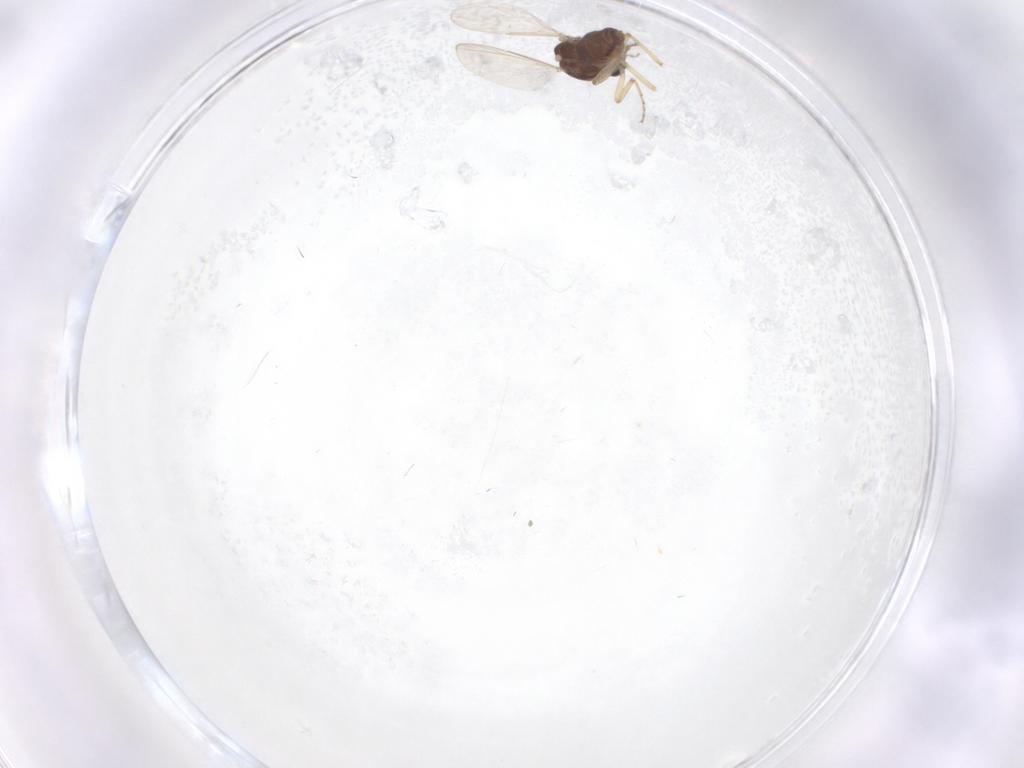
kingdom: Animalia
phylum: Arthropoda
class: Insecta
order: Diptera
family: Ceratopogonidae
